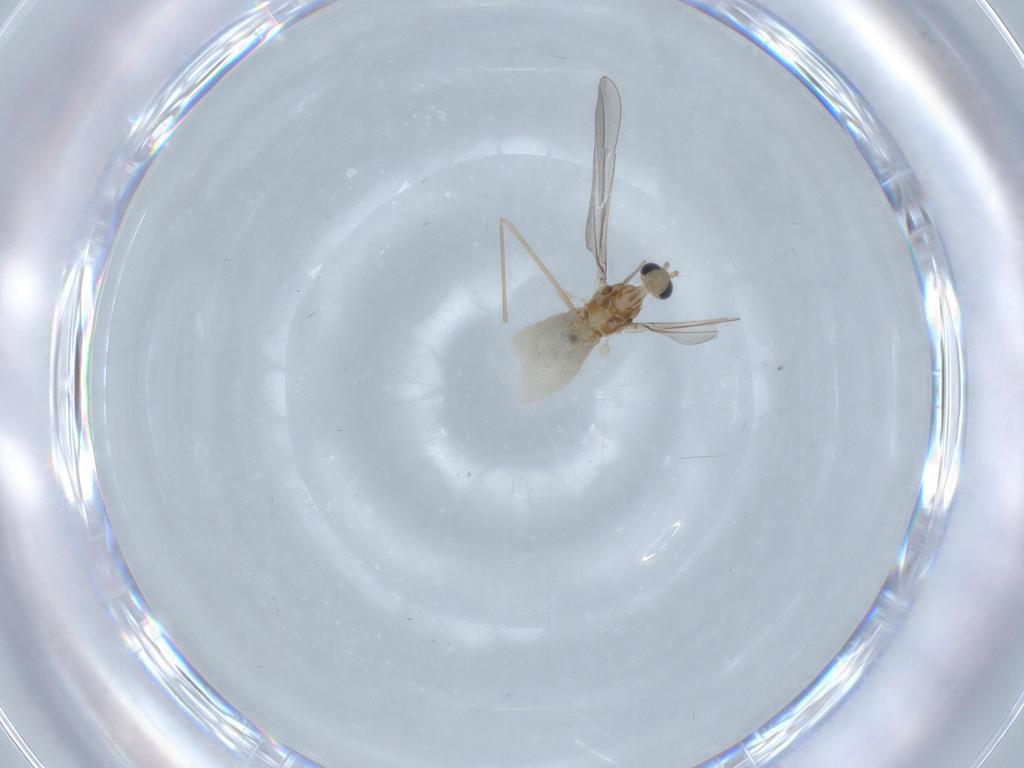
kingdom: Animalia
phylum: Arthropoda
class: Insecta
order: Diptera
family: Cecidomyiidae
